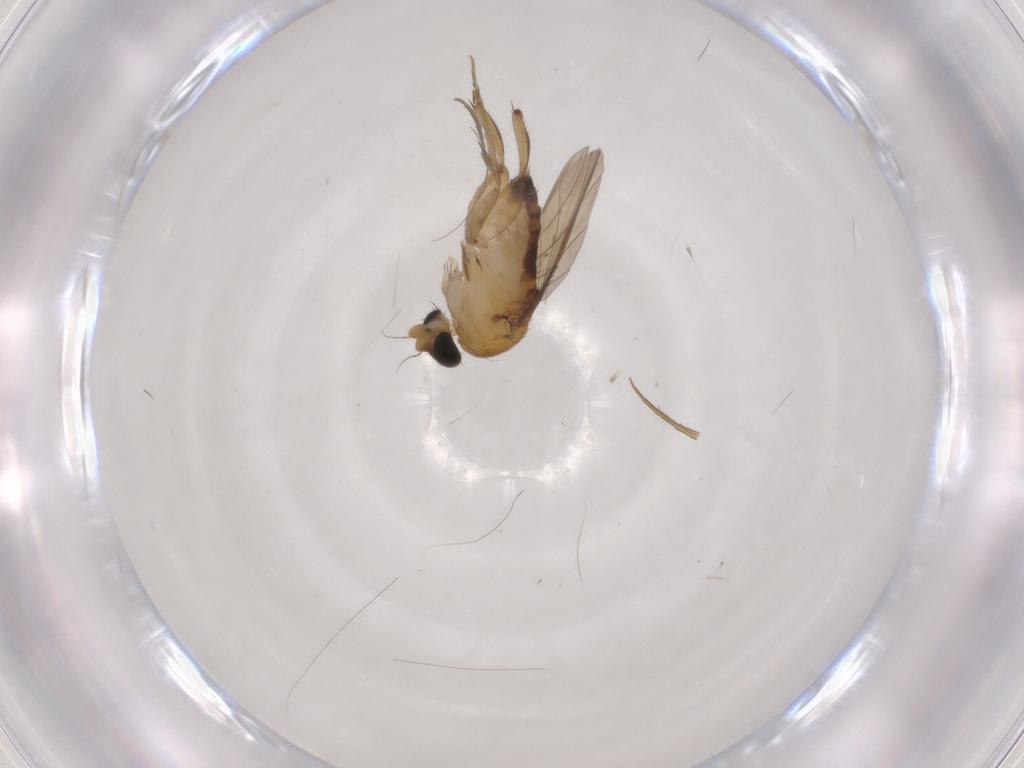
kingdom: Animalia
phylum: Arthropoda
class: Insecta
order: Diptera
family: Phoridae
